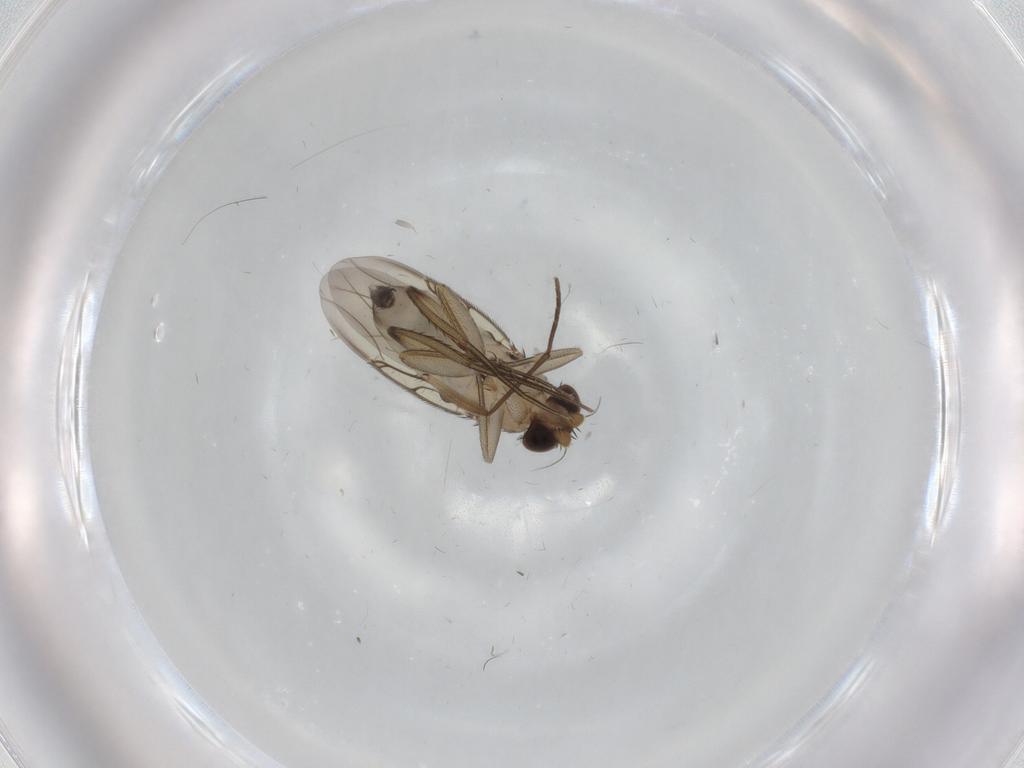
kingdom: Animalia
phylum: Arthropoda
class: Insecta
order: Diptera
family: Phoridae
